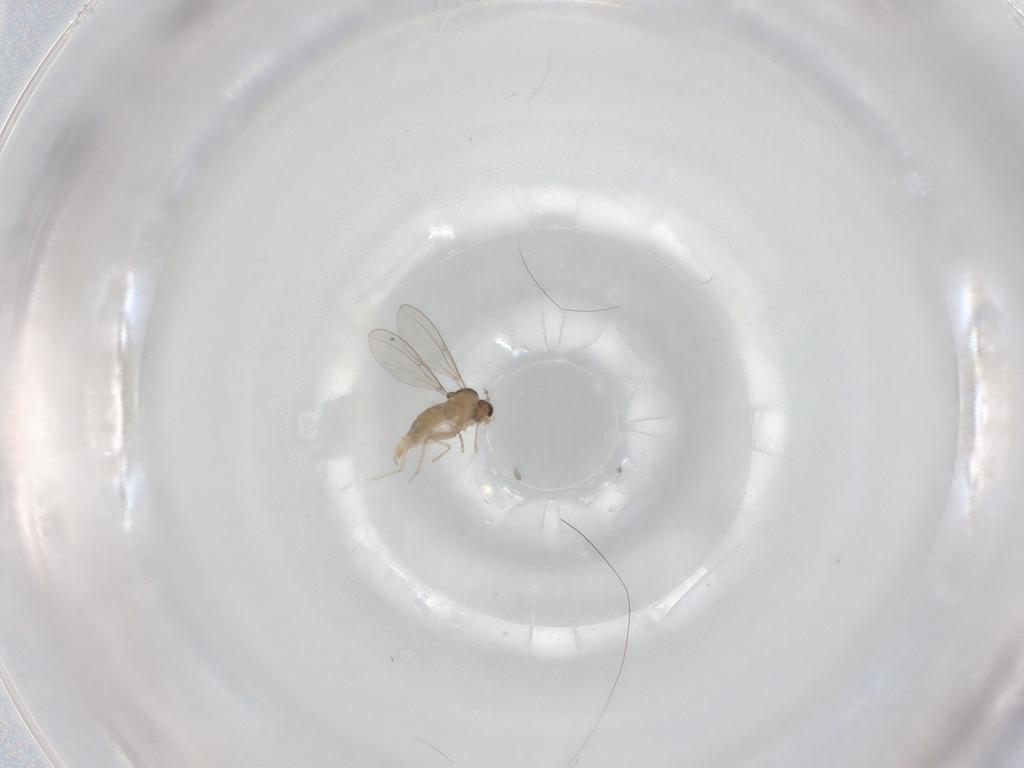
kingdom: Animalia
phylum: Arthropoda
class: Insecta
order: Diptera
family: Cecidomyiidae
